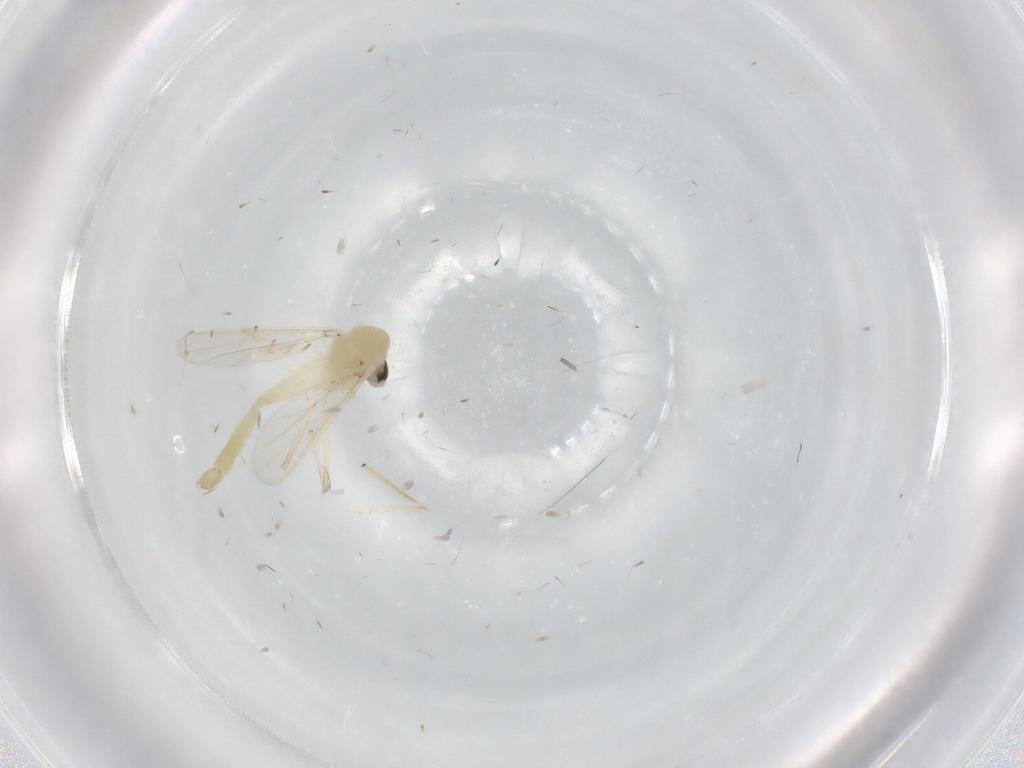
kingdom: Animalia
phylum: Arthropoda
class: Insecta
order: Diptera
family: Chironomidae
